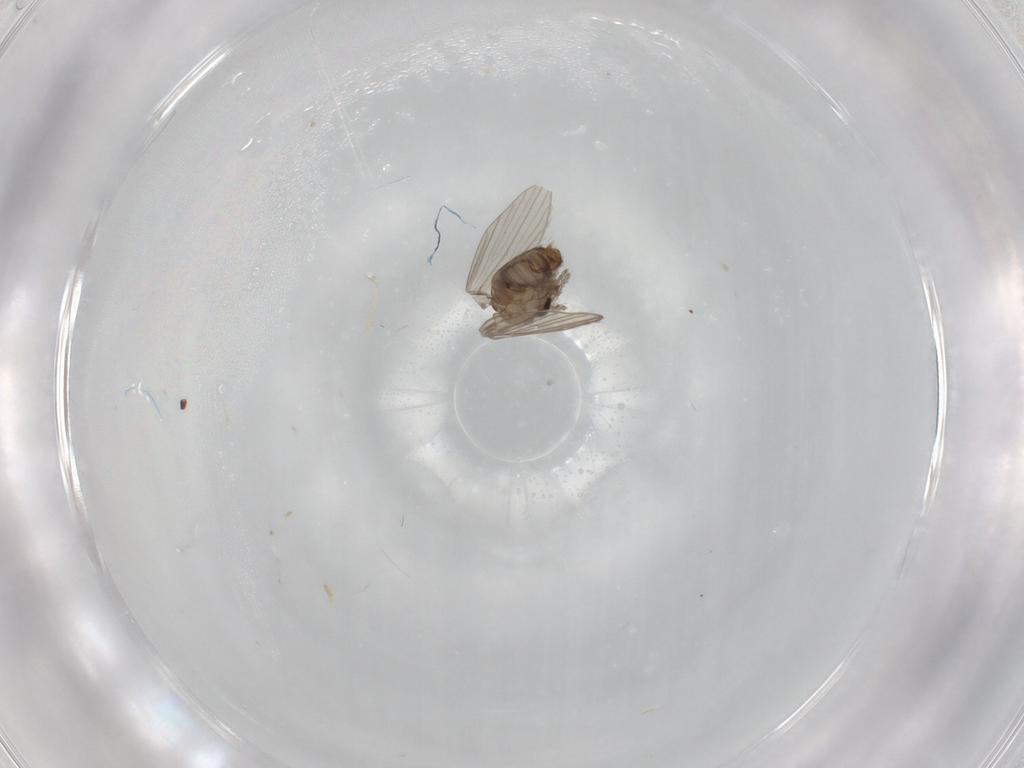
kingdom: Animalia
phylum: Arthropoda
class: Insecta
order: Diptera
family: Psychodidae
